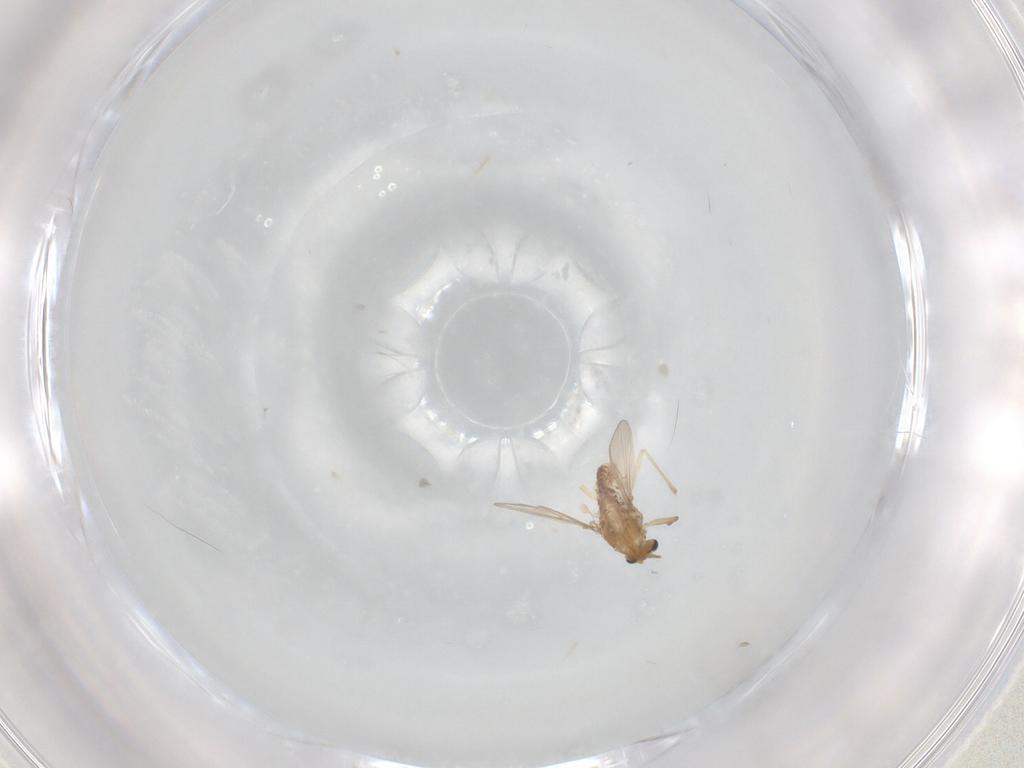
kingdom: Animalia
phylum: Arthropoda
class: Insecta
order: Diptera
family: Chironomidae
